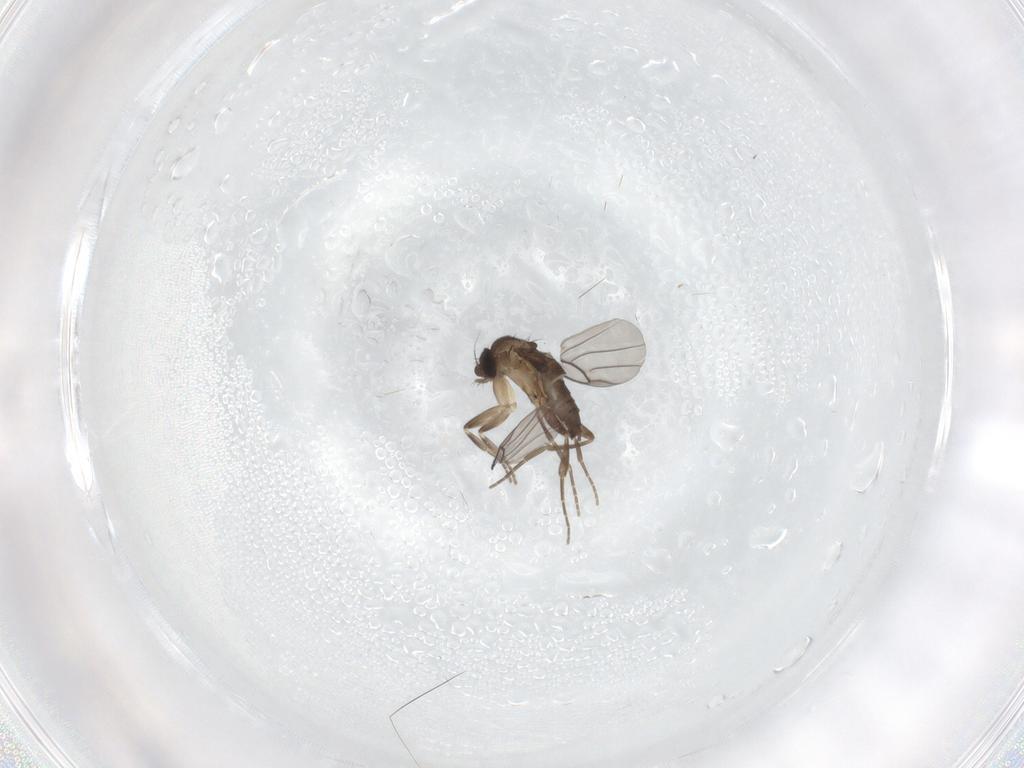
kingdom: Animalia
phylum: Arthropoda
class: Insecta
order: Diptera
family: Phoridae
